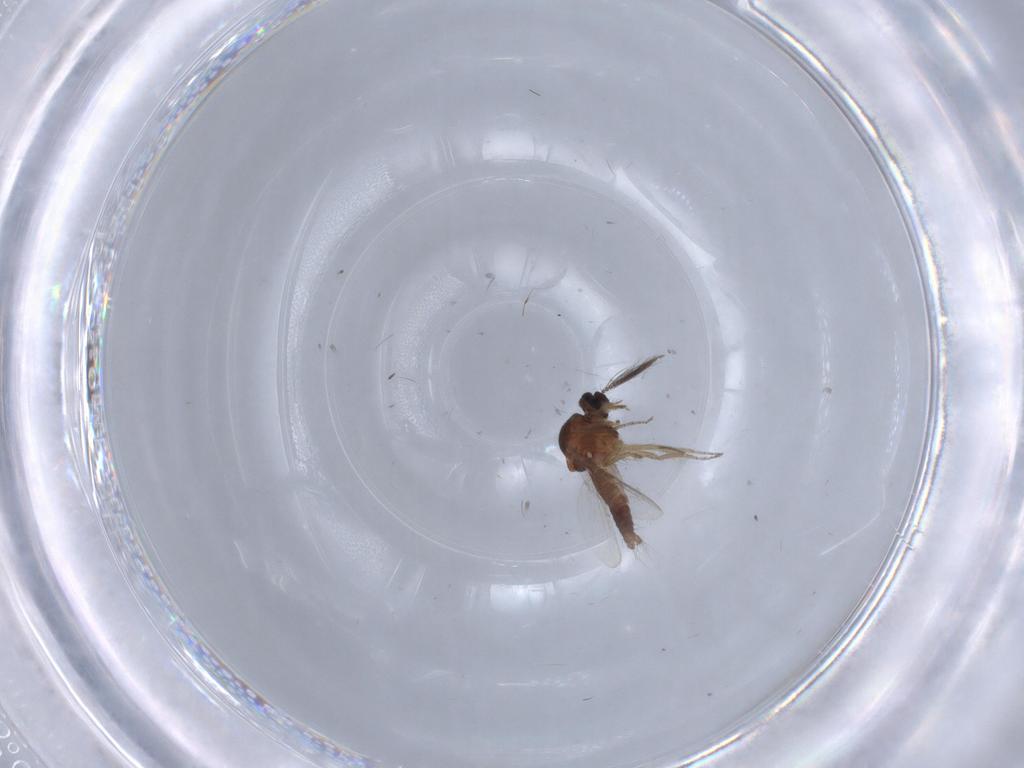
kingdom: Animalia
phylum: Arthropoda
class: Insecta
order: Diptera
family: Ceratopogonidae
